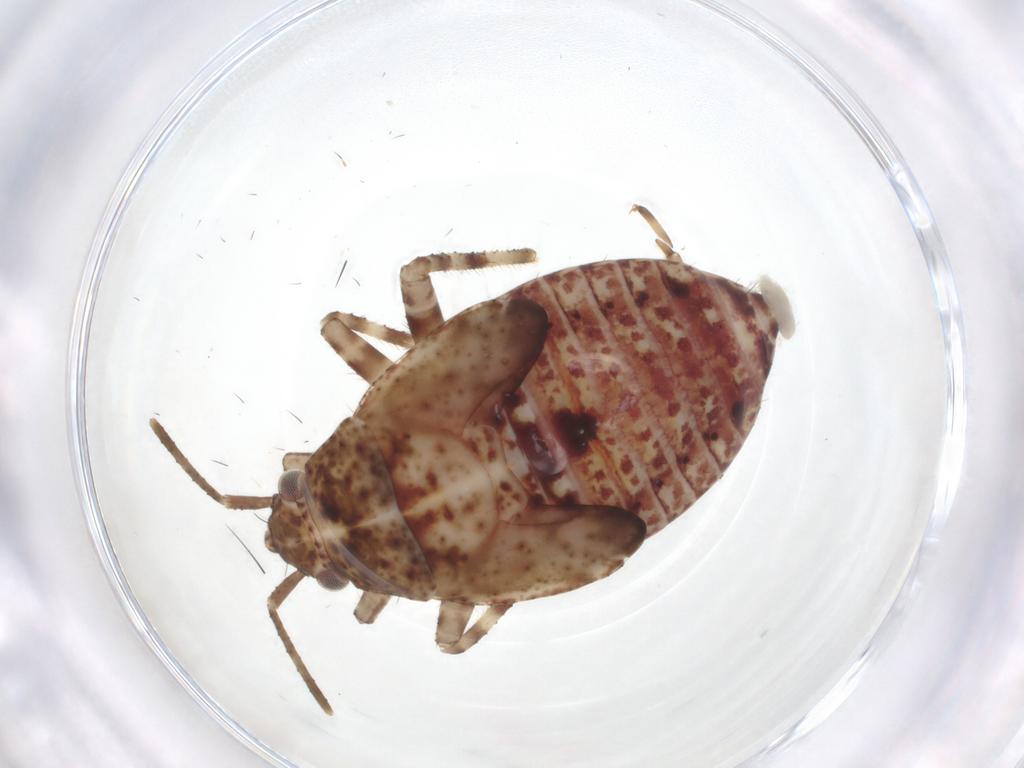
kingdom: Animalia
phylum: Arthropoda
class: Insecta
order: Hemiptera
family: Miridae
